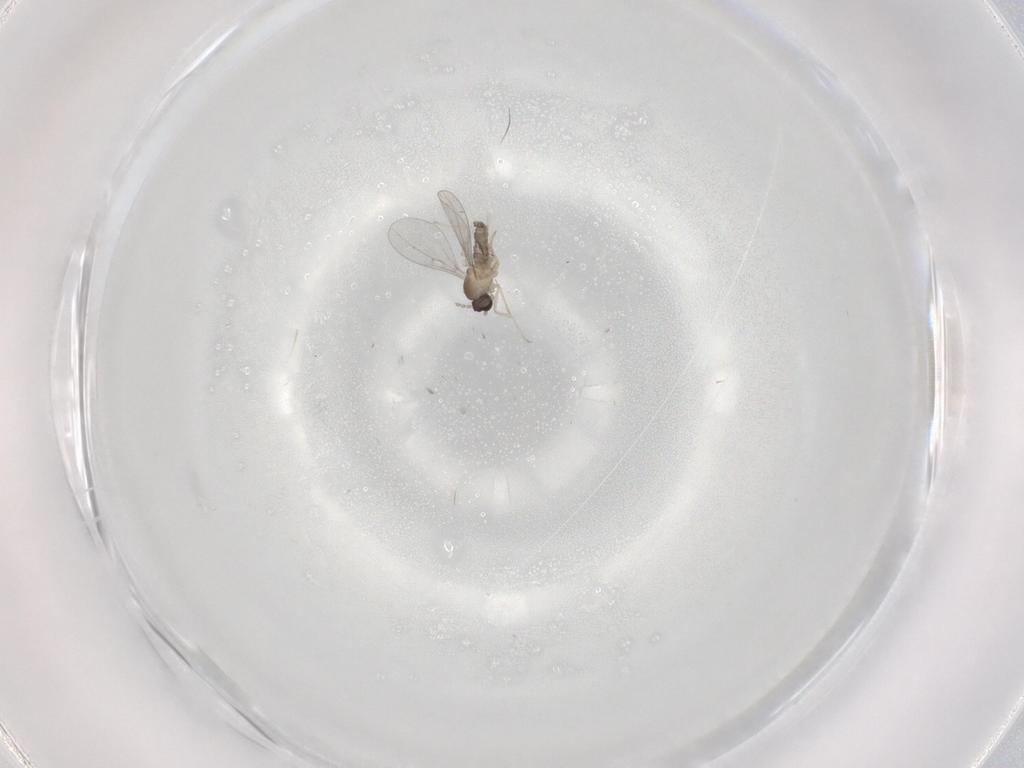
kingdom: Animalia
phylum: Arthropoda
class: Insecta
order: Diptera
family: Cecidomyiidae
